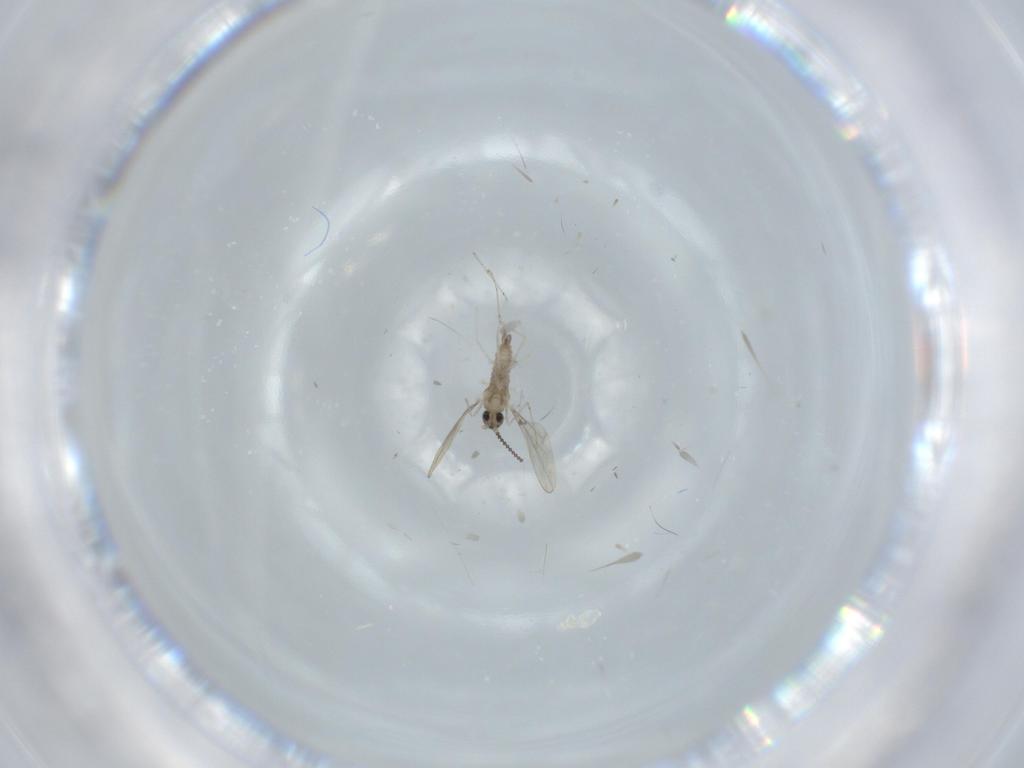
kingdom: Animalia
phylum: Arthropoda
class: Insecta
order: Diptera
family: Cecidomyiidae
